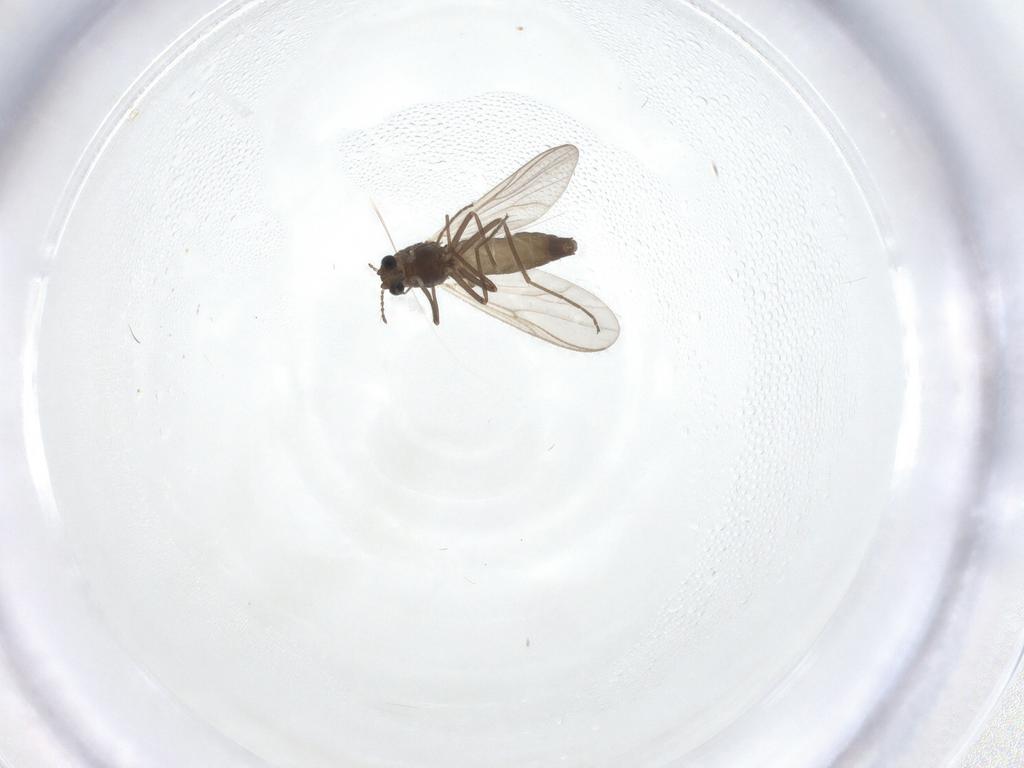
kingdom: Animalia
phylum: Arthropoda
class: Insecta
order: Diptera
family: Chironomidae
